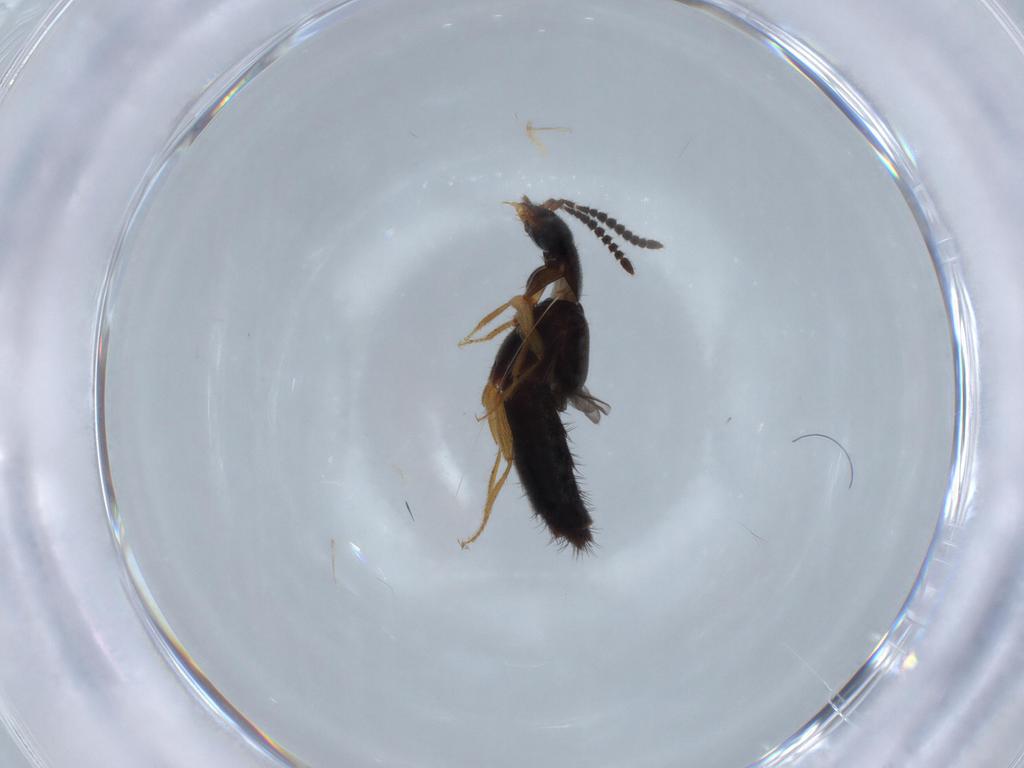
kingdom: Animalia
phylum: Arthropoda
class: Insecta
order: Coleoptera
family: Staphylinidae
